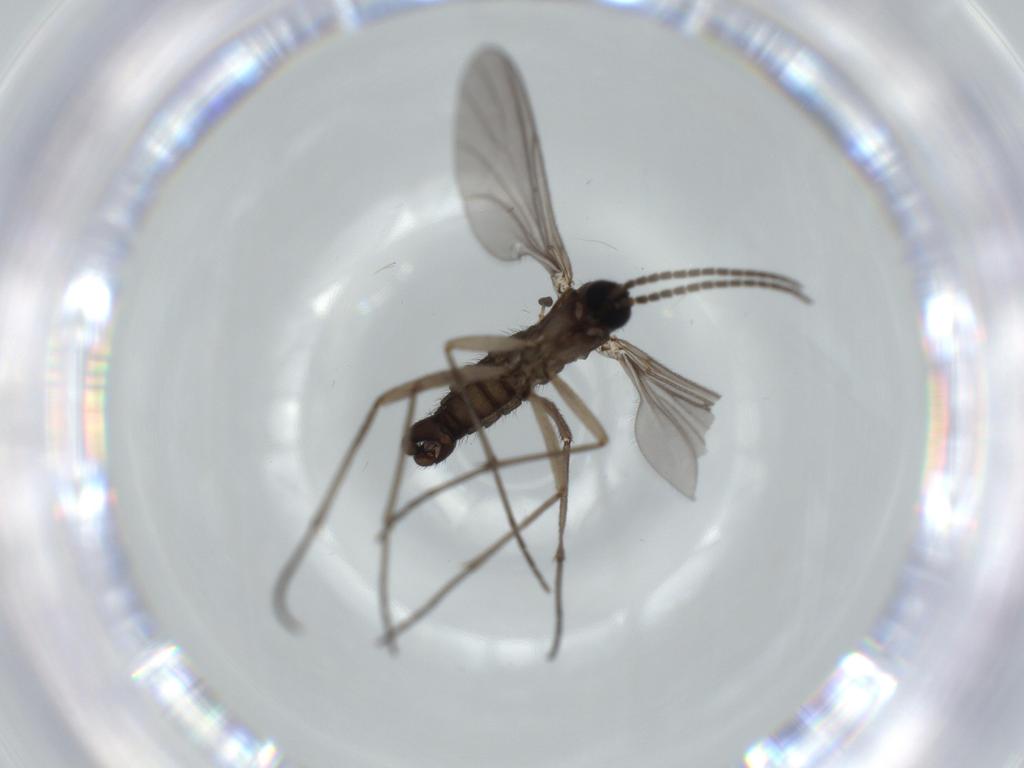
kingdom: Animalia
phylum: Arthropoda
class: Insecta
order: Diptera
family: Sciaridae
